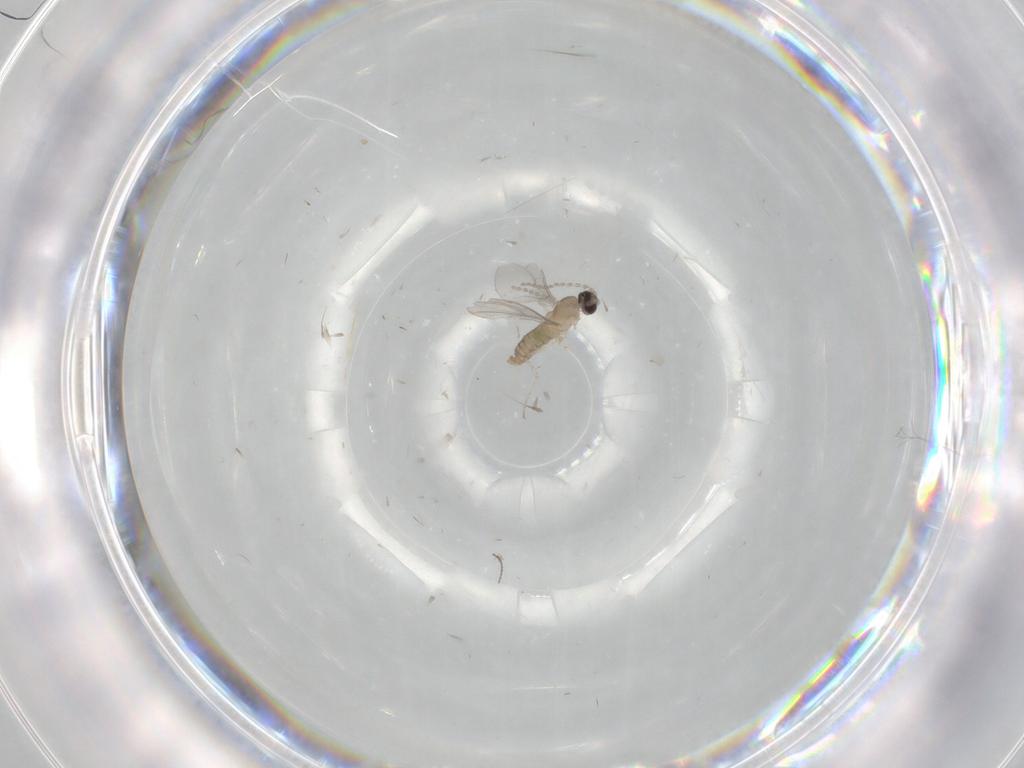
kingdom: Animalia
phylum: Arthropoda
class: Insecta
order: Diptera
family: Cecidomyiidae
